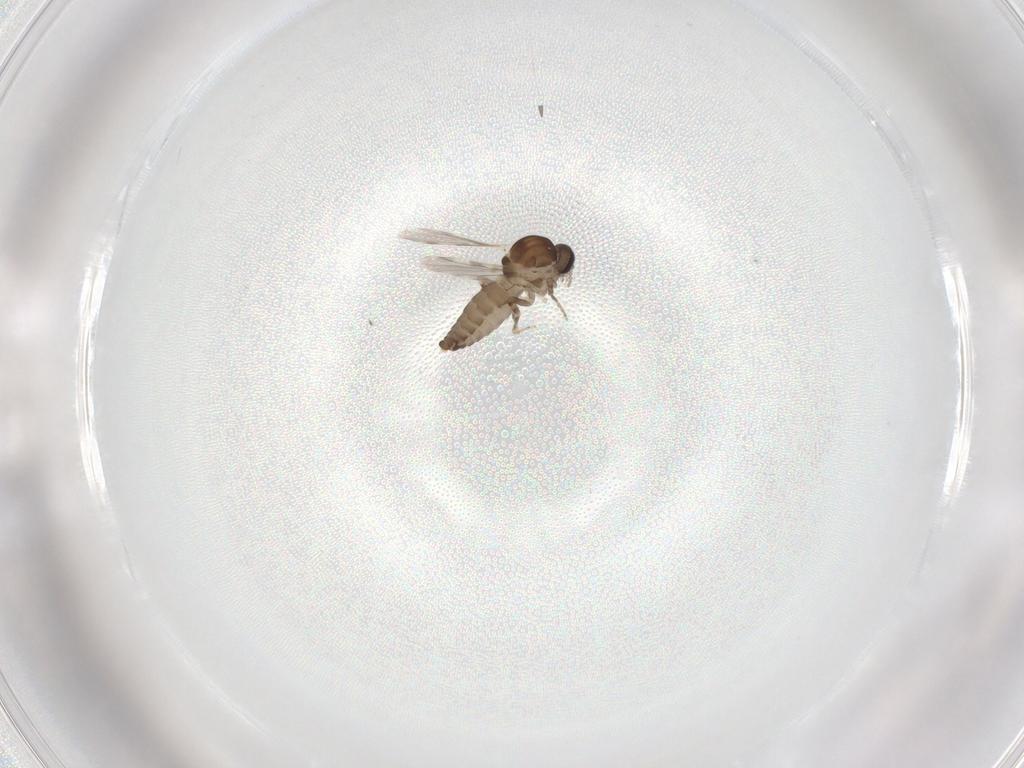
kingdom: Animalia
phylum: Arthropoda
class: Insecta
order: Diptera
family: Ceratopogonidae
